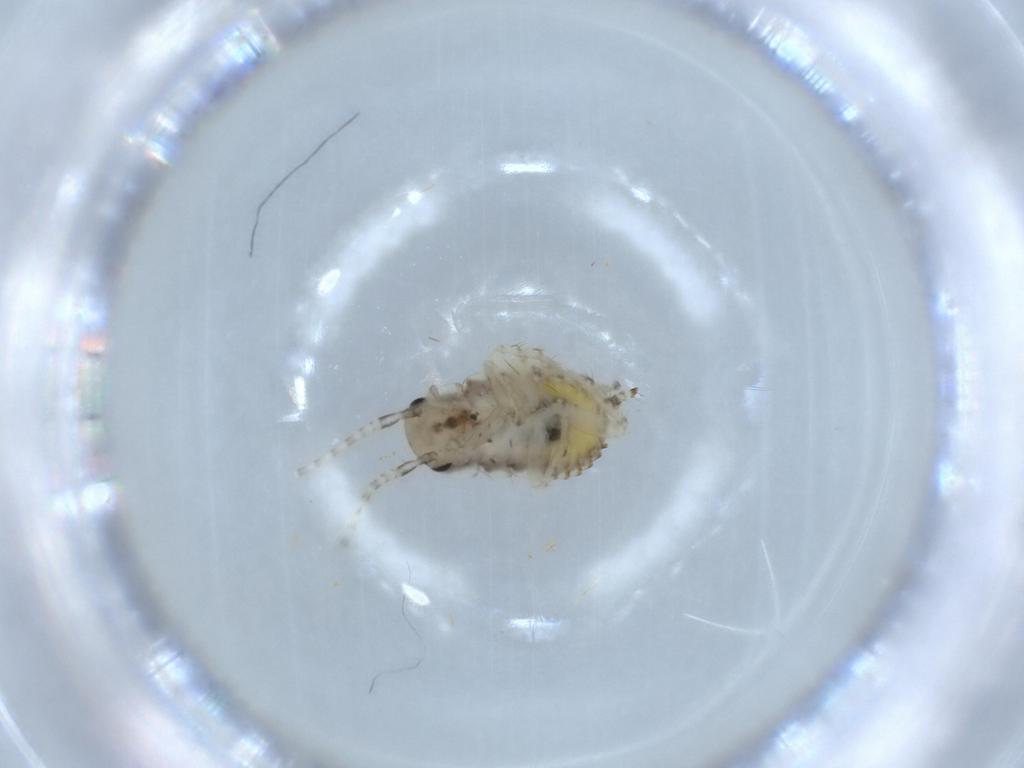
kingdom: Animalia
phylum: Arthropoda
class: Insecta
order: Blattodea
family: Ectobiidae
